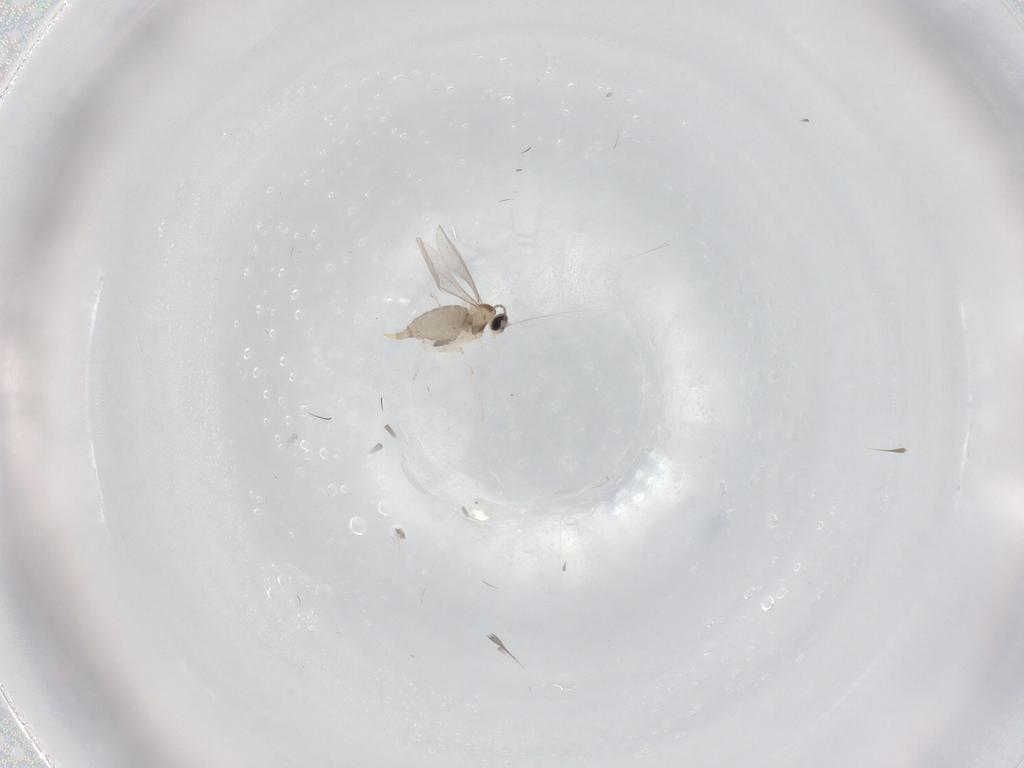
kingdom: Animalia
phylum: Arthropoda
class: Insecta
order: Diptera
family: Cecidomyiidae
